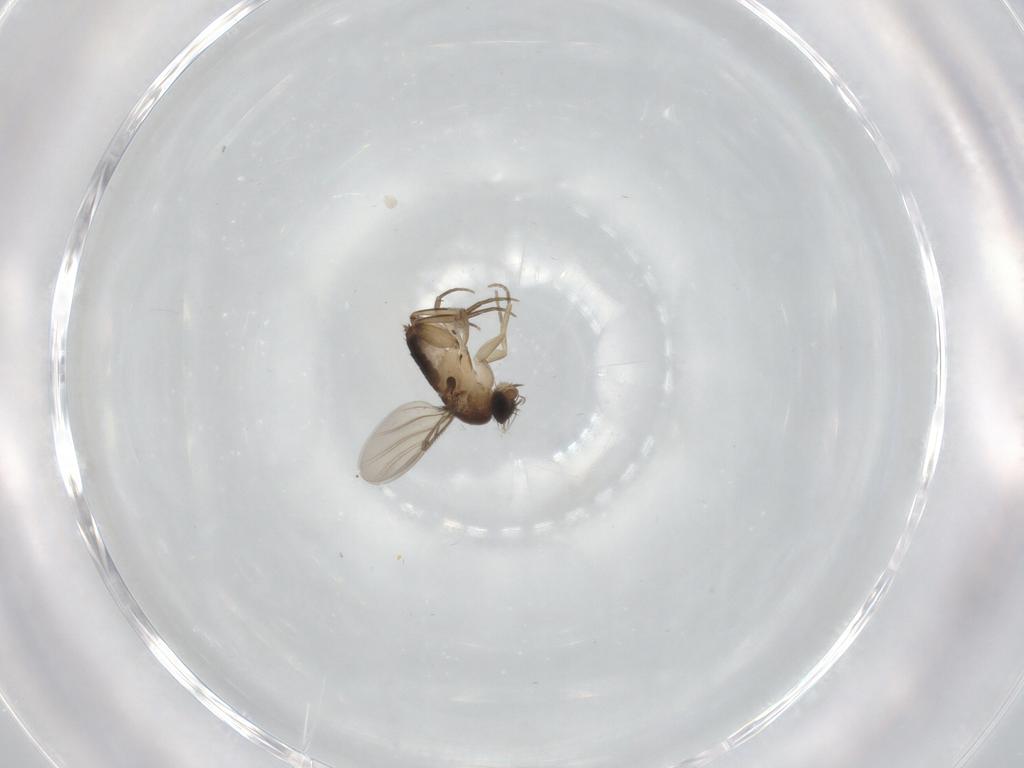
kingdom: Animalia
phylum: Arthropoda
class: Insecta
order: Diptera
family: Phoridae
